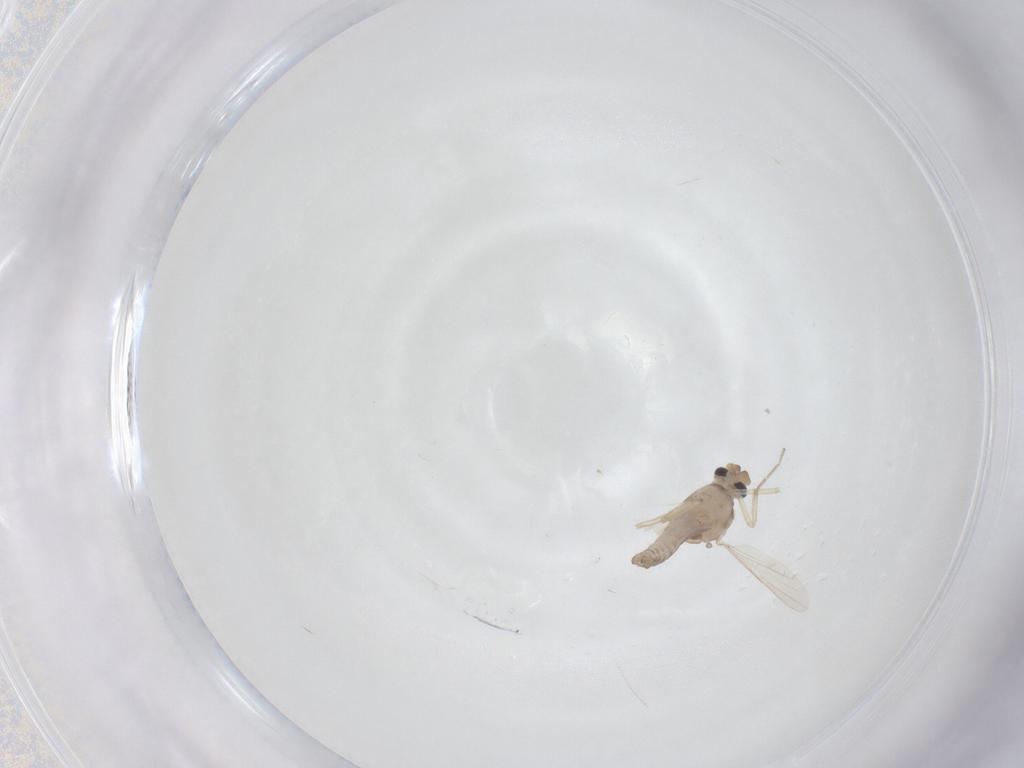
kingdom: Animalia
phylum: Arthropoda
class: Insecta
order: Diptera
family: Ceratopogonidae
